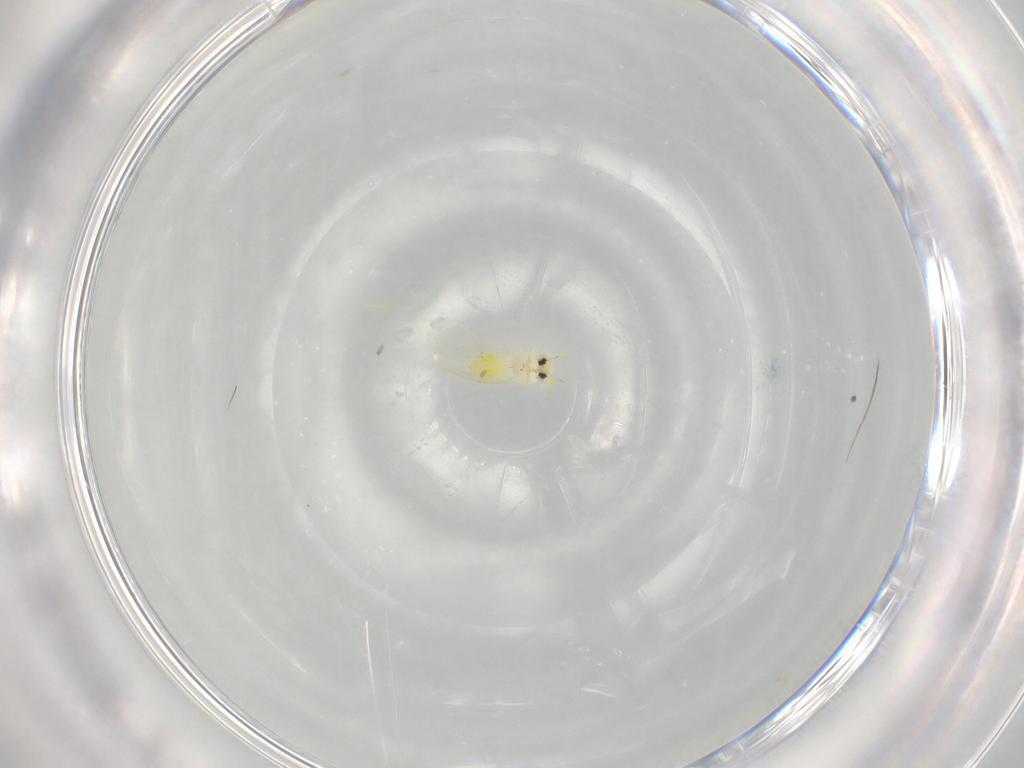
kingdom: Animalia
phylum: Arthropoda
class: Insecta
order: Hemiptera
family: Aleyrodidae
